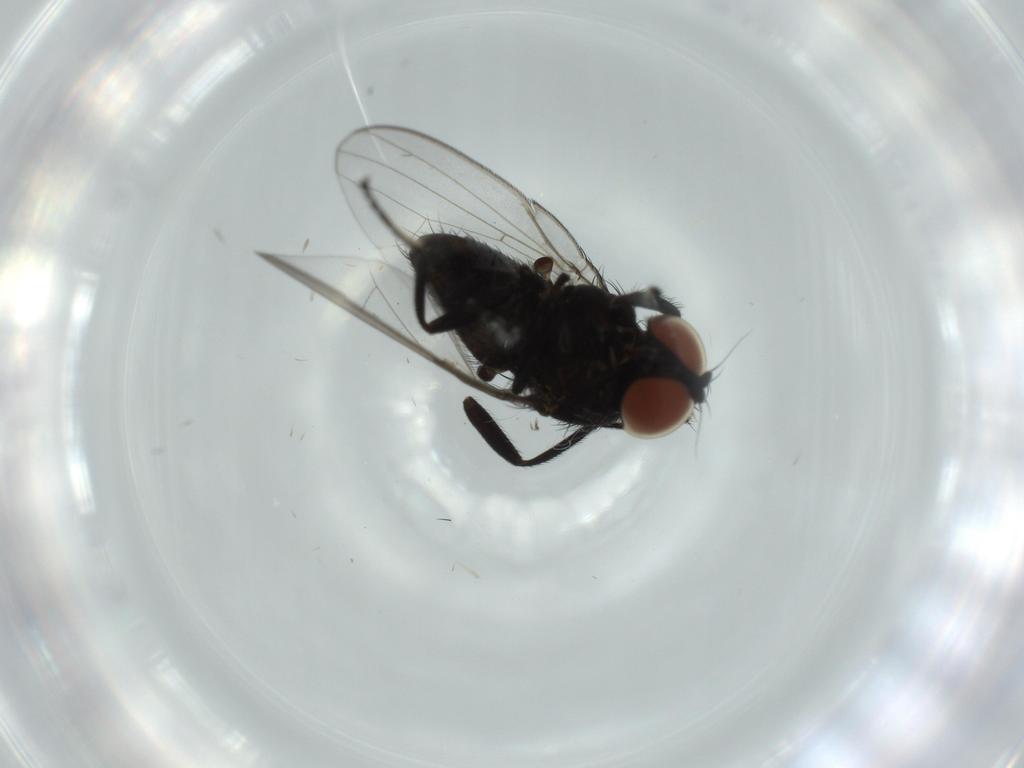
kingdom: Animalia
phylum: Arthropoda
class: Insecta
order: Diptera
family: Milichiidae
